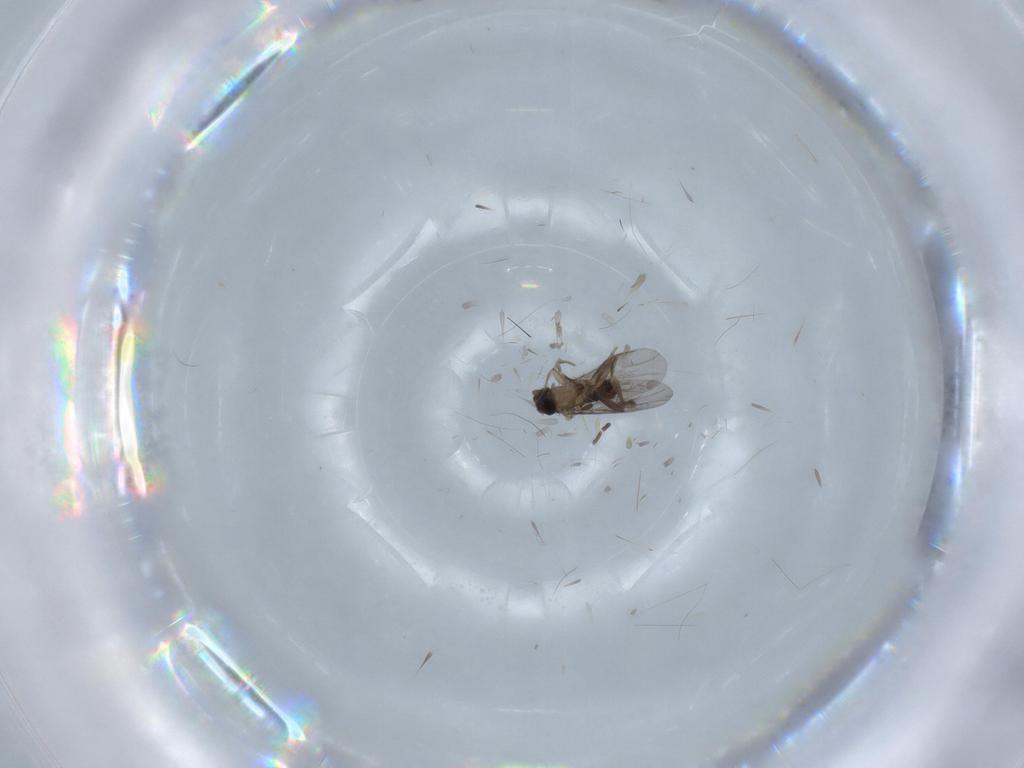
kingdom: Animalia
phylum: Arthropoda
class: Insecta
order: Diptera
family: Chironomidae
